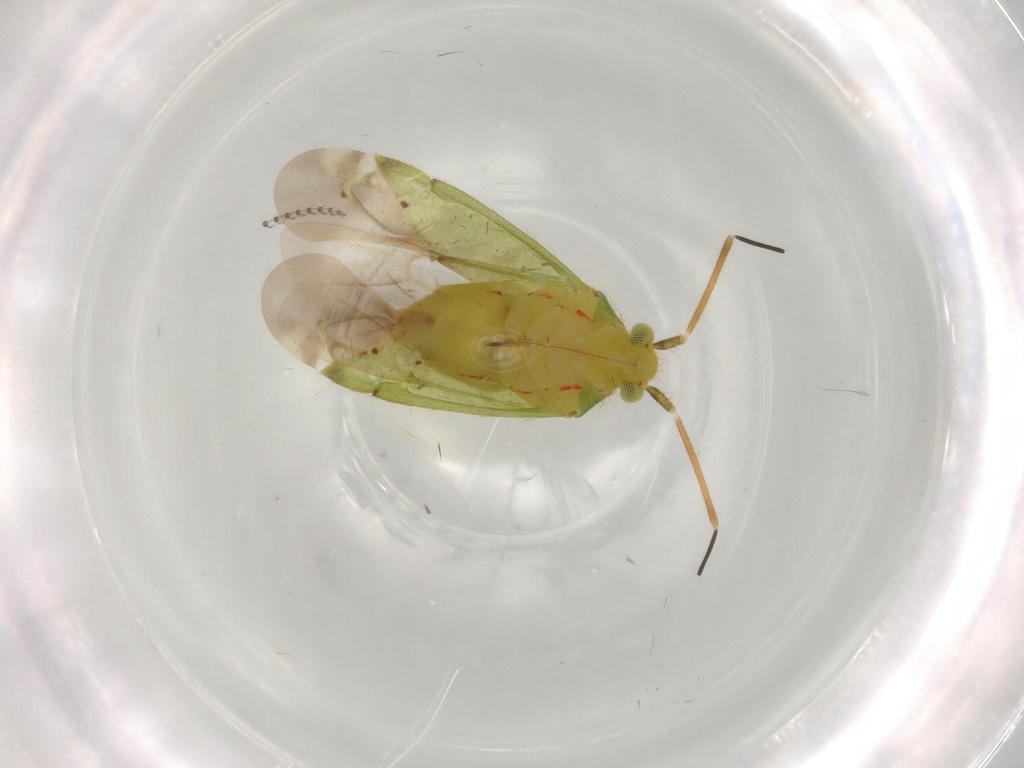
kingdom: Animalia
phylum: Arthropoda
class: Insecta
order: Hemiptera
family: Miridae
